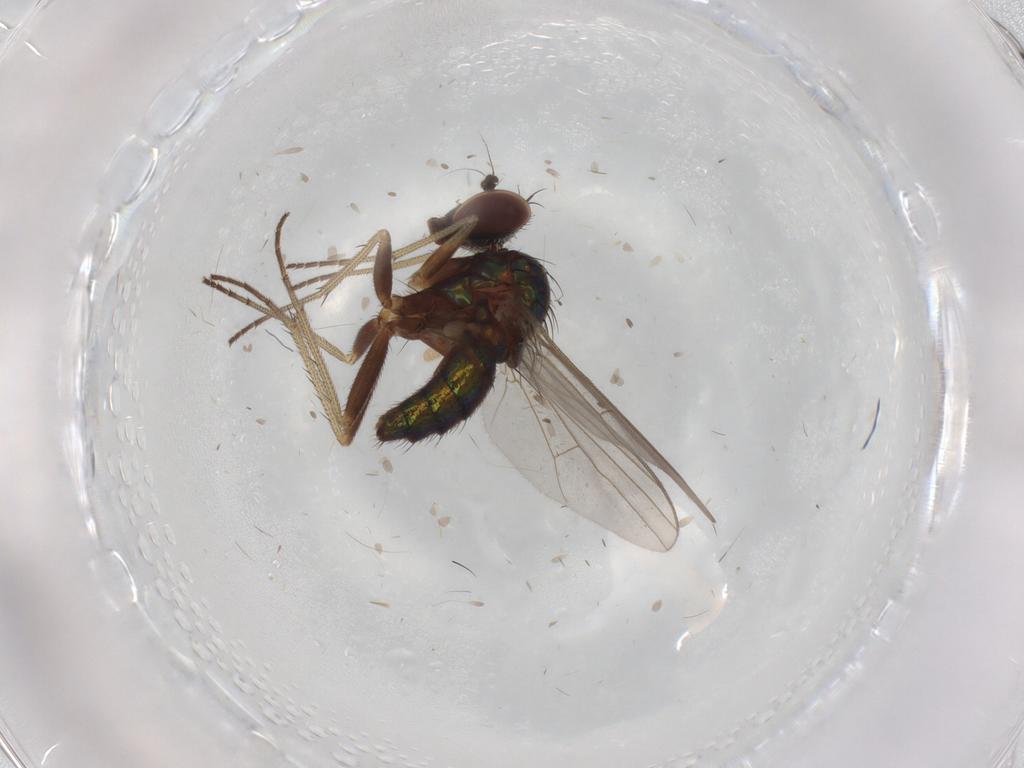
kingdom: Animalia
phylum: Arthropoda
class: Insecta
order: Diptera
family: Dolichopodidae
